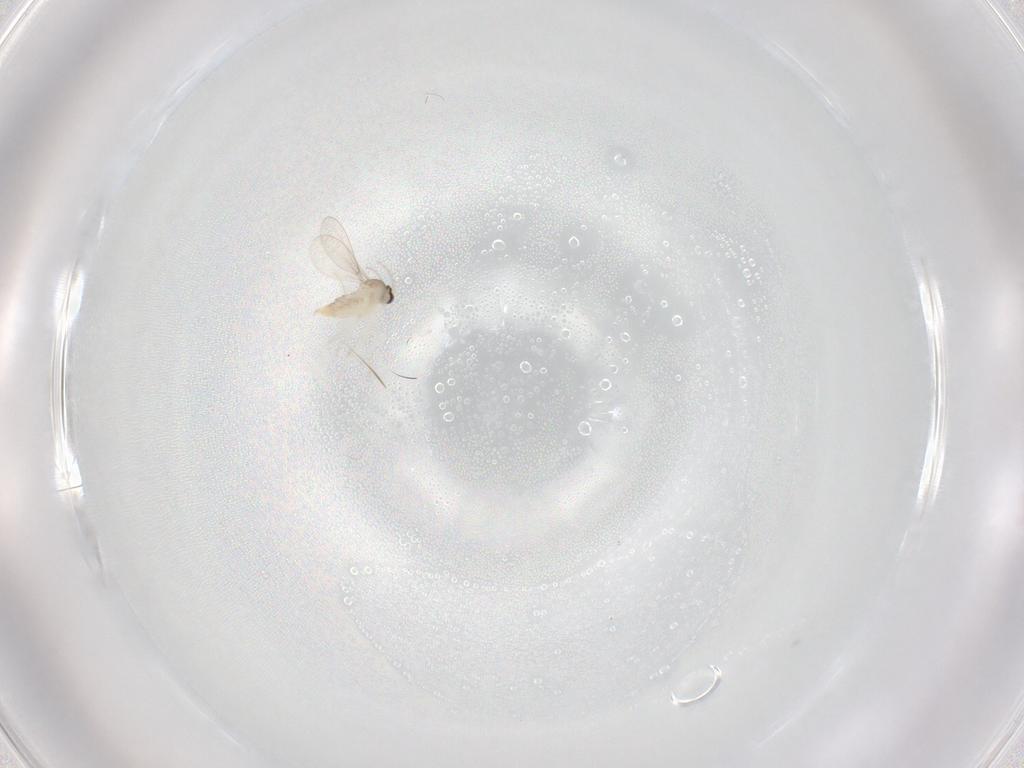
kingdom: Animalia
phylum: Arthropoda
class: Insecta
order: Diptera
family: Cecidomyiidae
